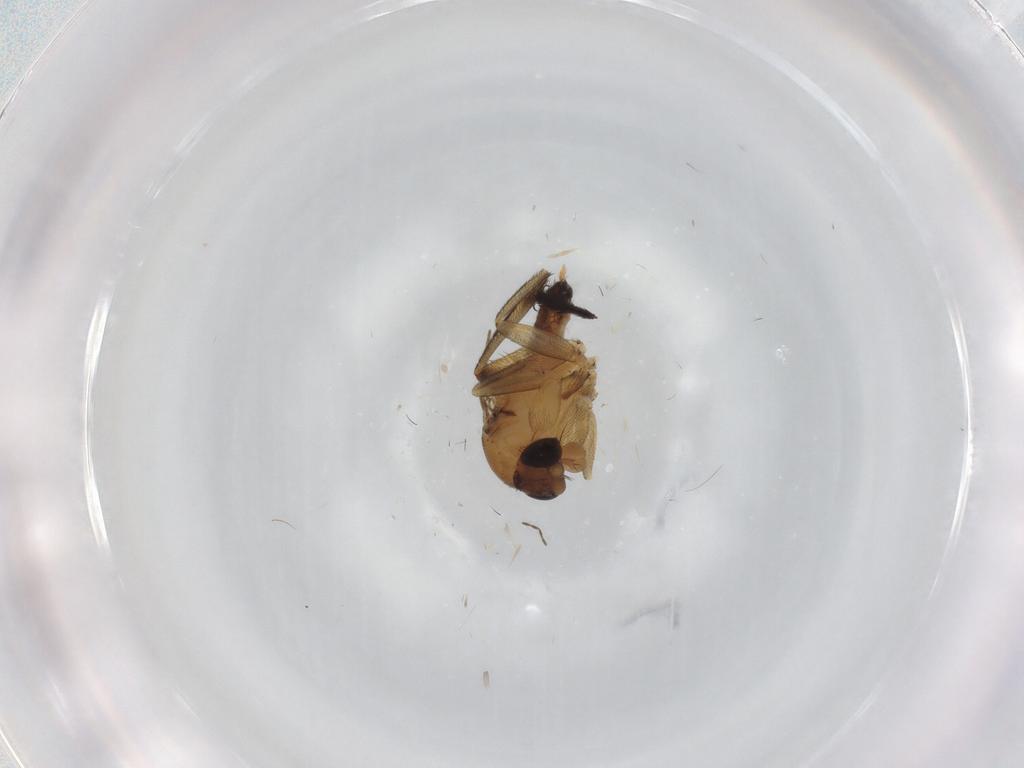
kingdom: Animalia
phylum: Arthropoda
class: Insecta
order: Diptera
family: Phoridae
